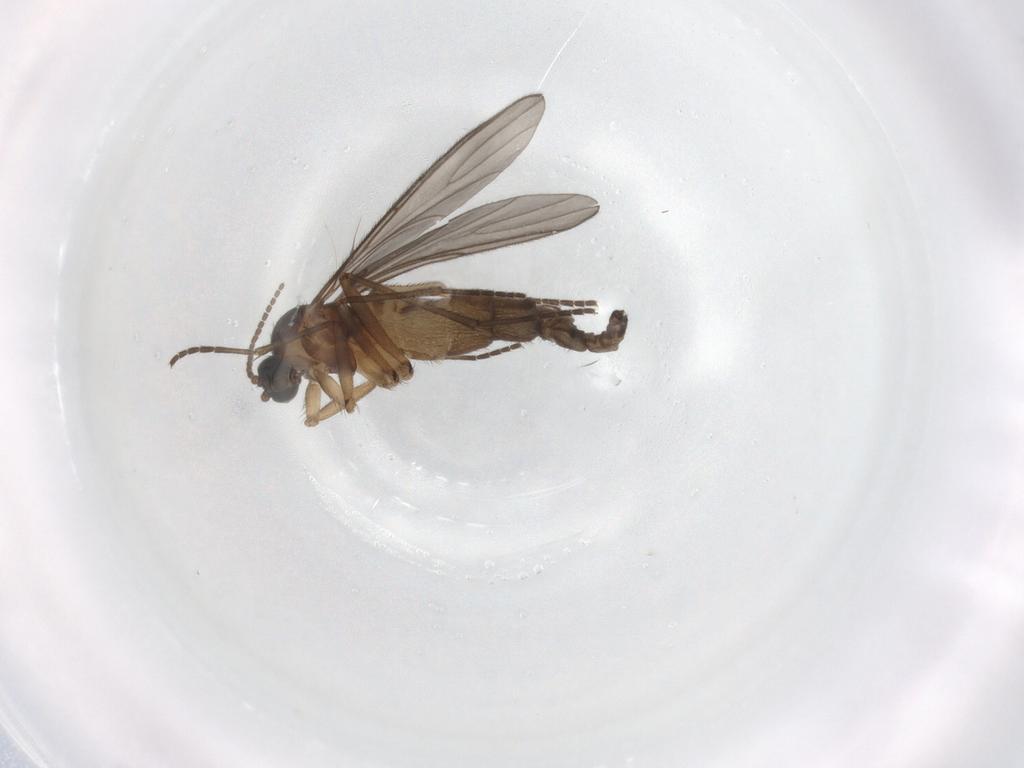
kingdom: Animalia
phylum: Arthropoda
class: Insecta
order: Diptera
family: Sciaridae
